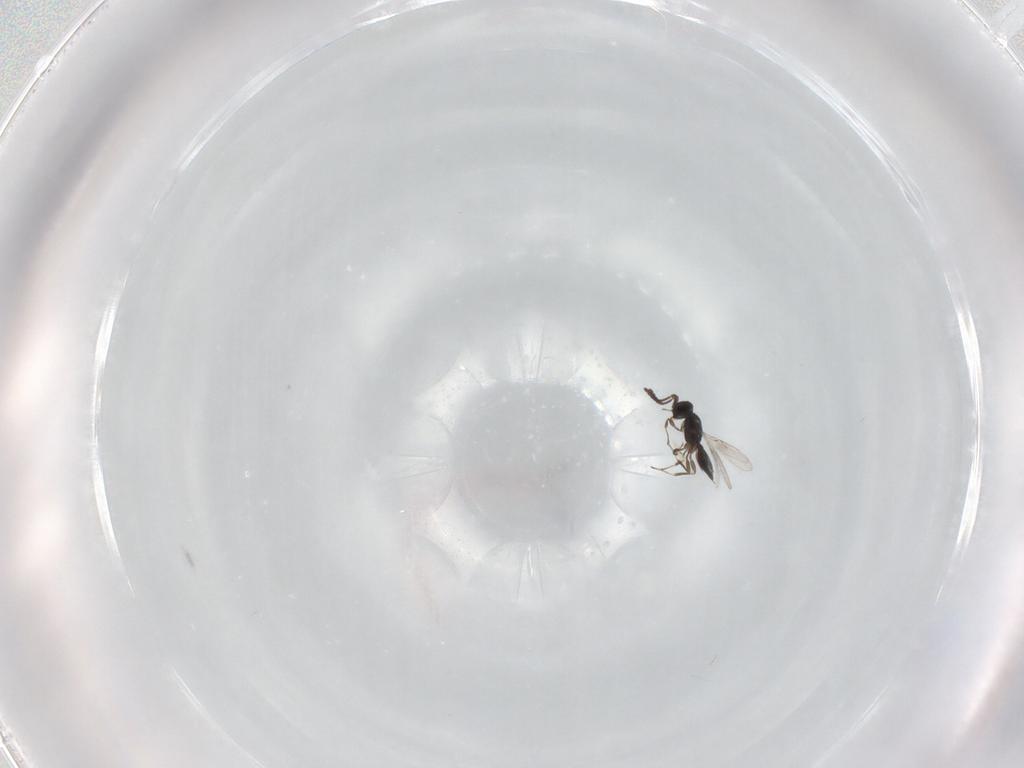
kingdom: Animalia
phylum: Arthropoda
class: Insecta
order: Hymenoptera
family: Scelionidae
